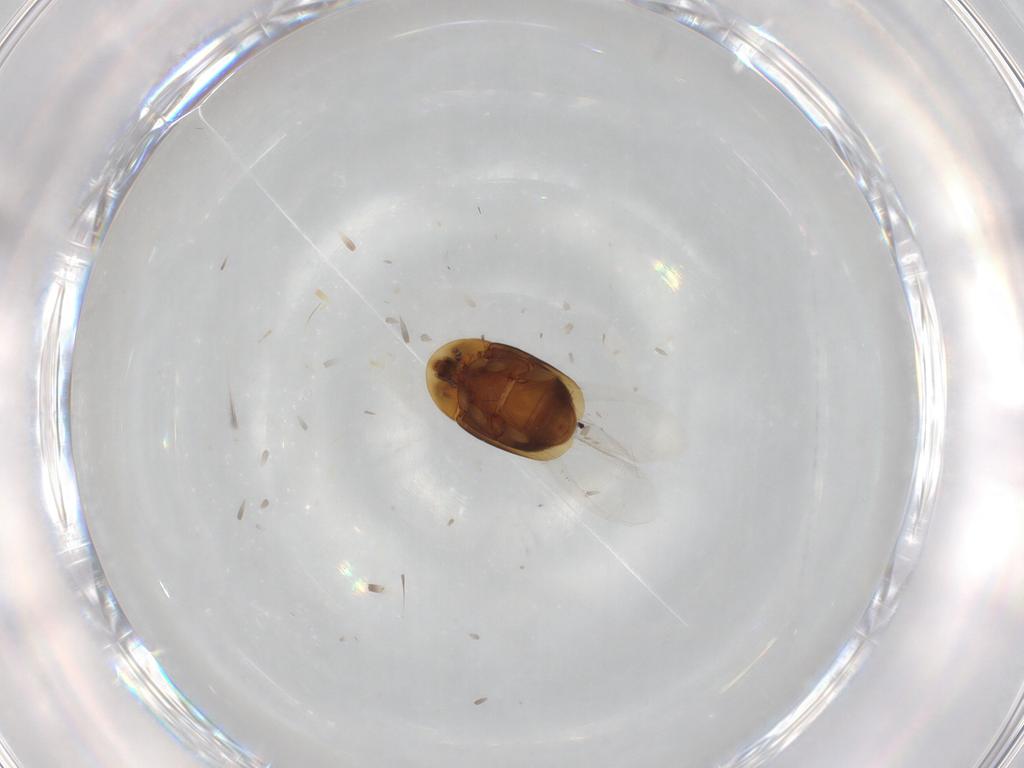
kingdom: Animalia
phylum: Arthropoda
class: Insecta
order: Coleoptera
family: Corylophidae
